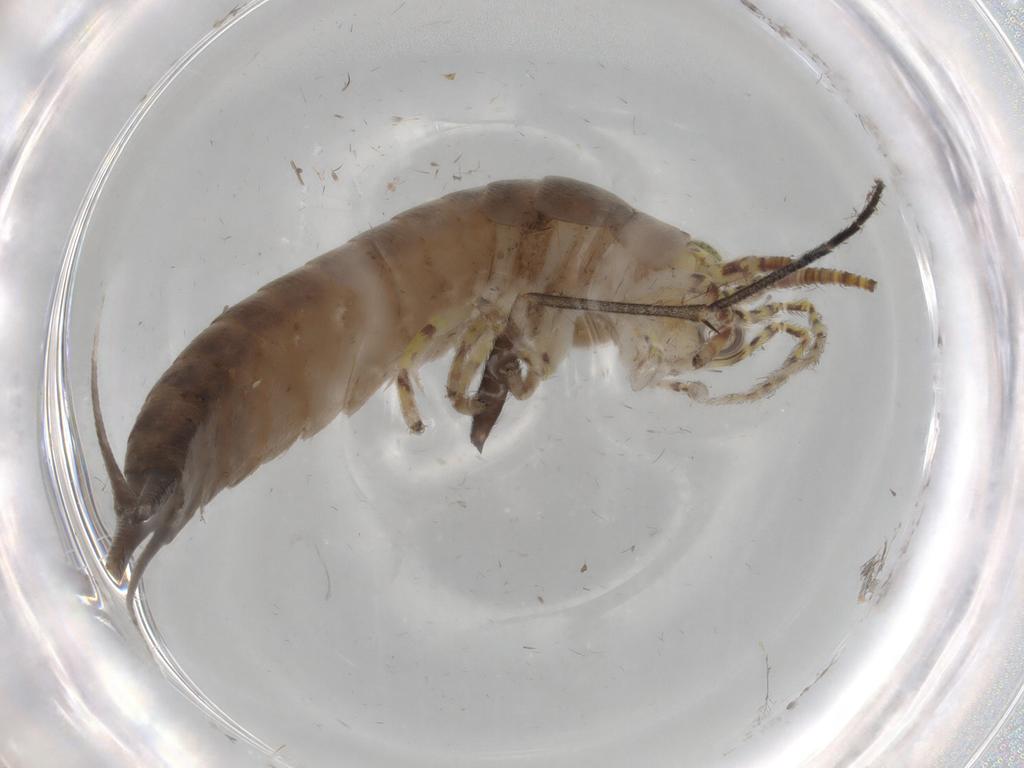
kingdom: Animalia
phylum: Arthropoda
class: Insecta
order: Archaeognatha
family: Machilidae
